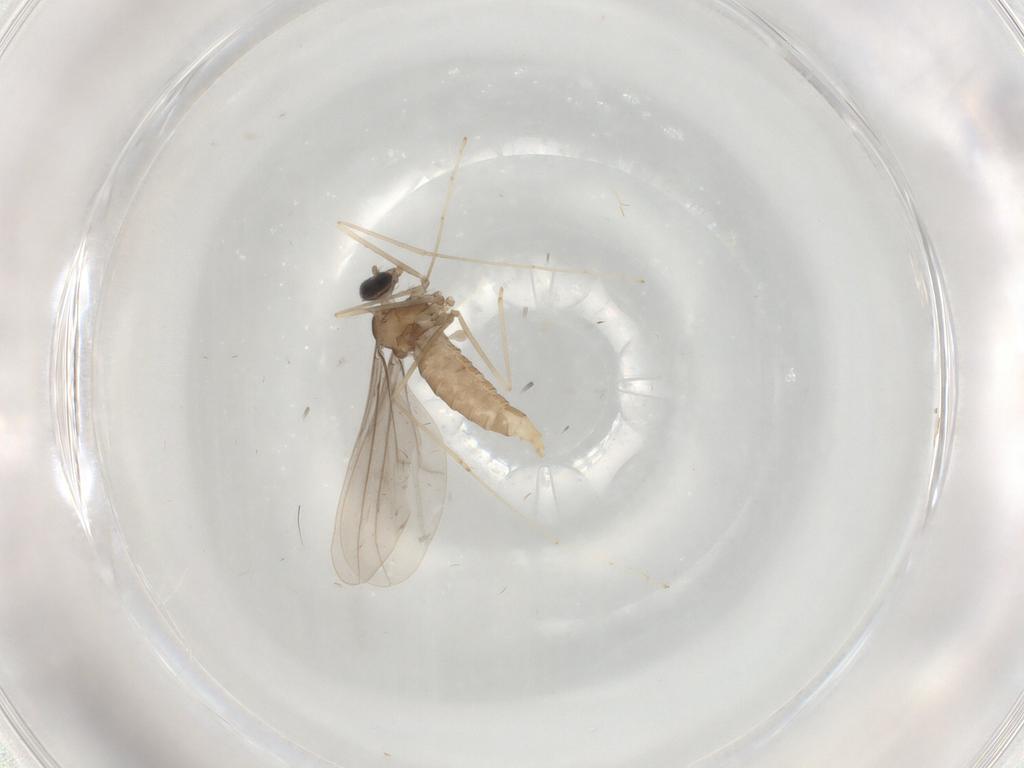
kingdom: Animalia
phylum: Arthropoda
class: Insecta
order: Diptera
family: Cecidomyiidae
